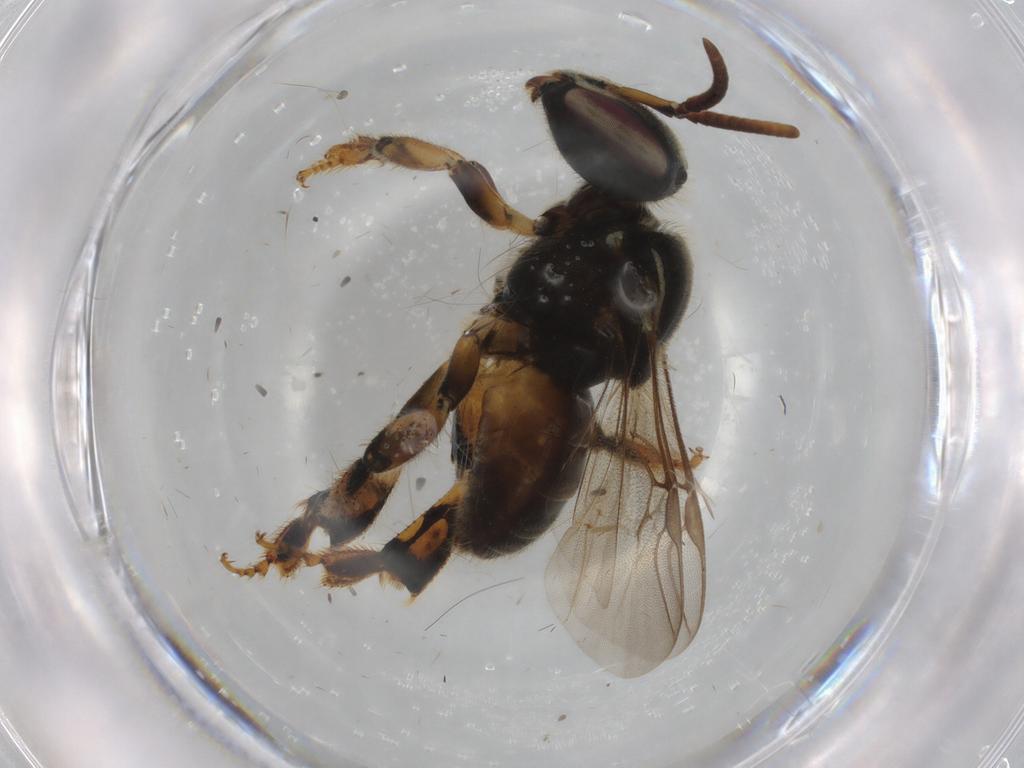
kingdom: Animalia
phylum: Arthropoda
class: Insecta
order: Hymenoptera
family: Apidae
